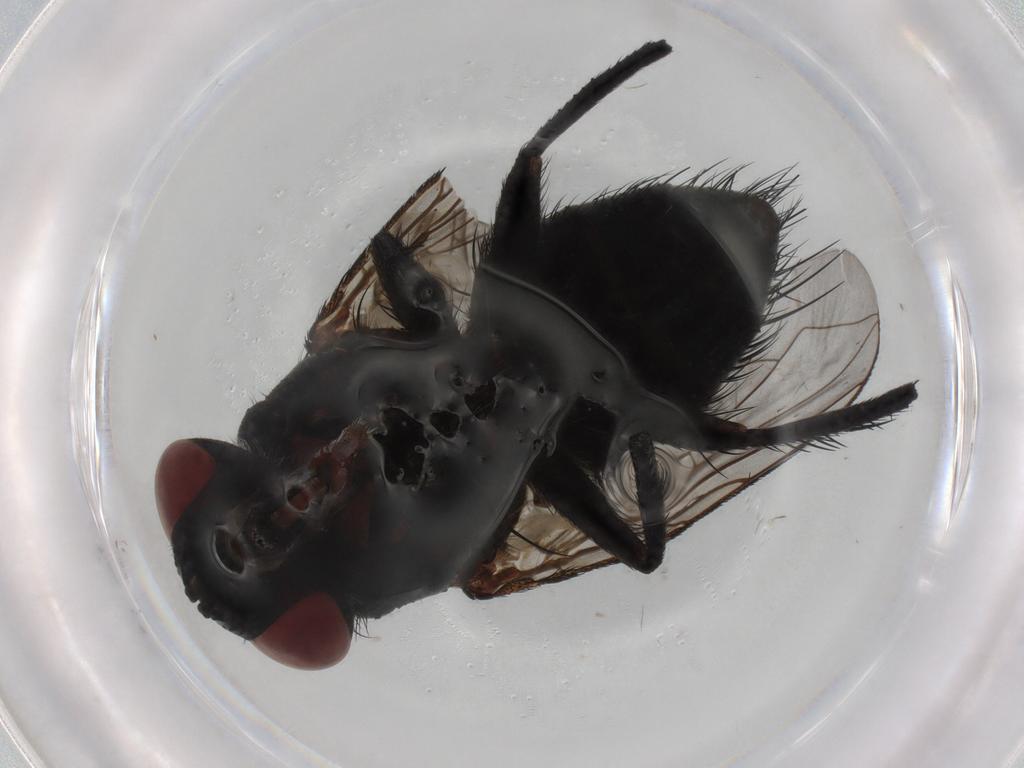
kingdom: Animalia
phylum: Arthropoda
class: Insecta
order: Diptera
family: Tachinidae
